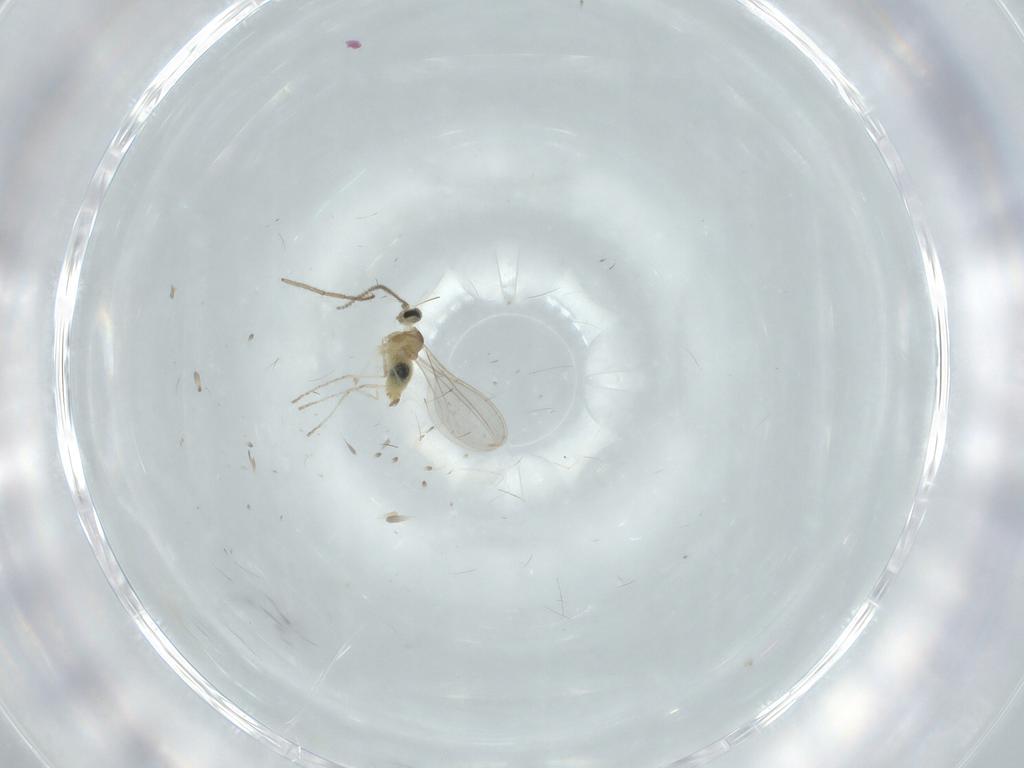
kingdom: Animalia
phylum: Arthropoda
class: Insecta
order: Diptera
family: Cecidomyiidae
